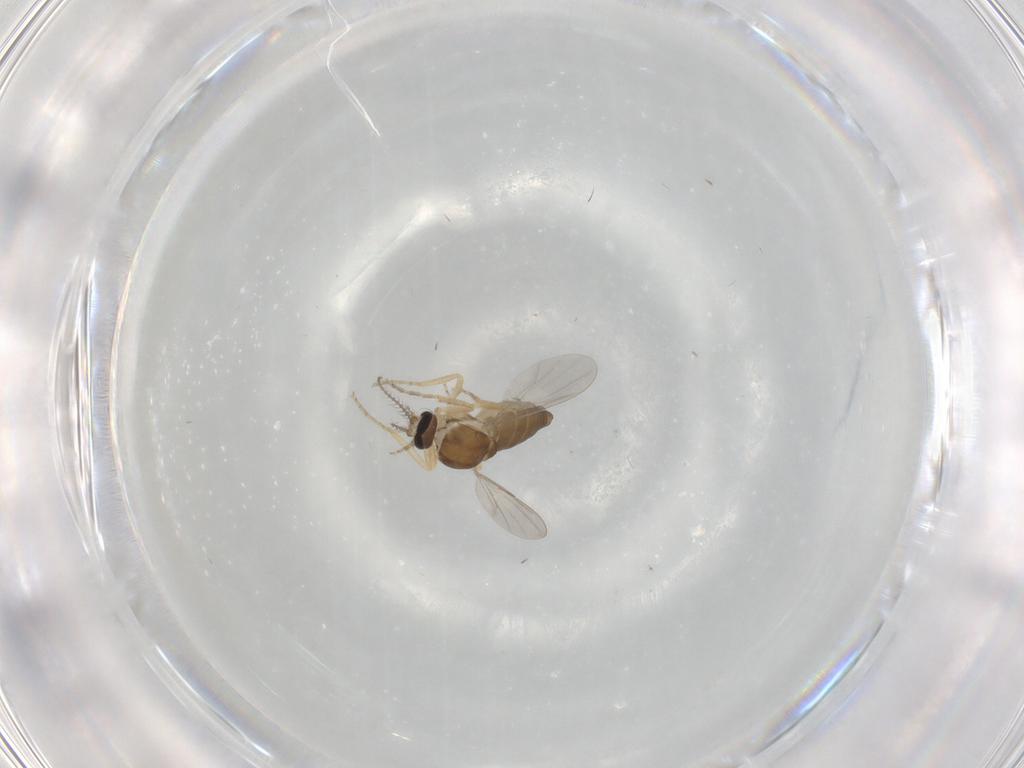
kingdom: Animalia
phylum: Arthropoda
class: Insecta
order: Diptera
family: Ceratopogonidae
